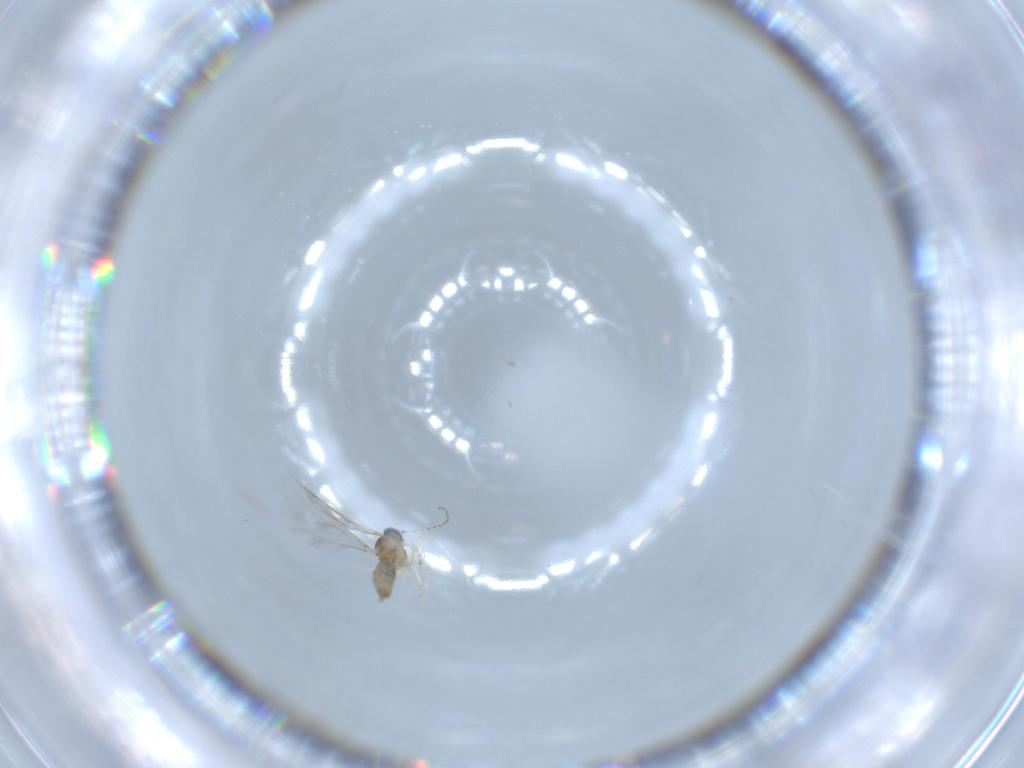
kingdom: Animalia
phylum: Arthropoda
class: Insecta
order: Diptera
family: Cecidomyiidae
